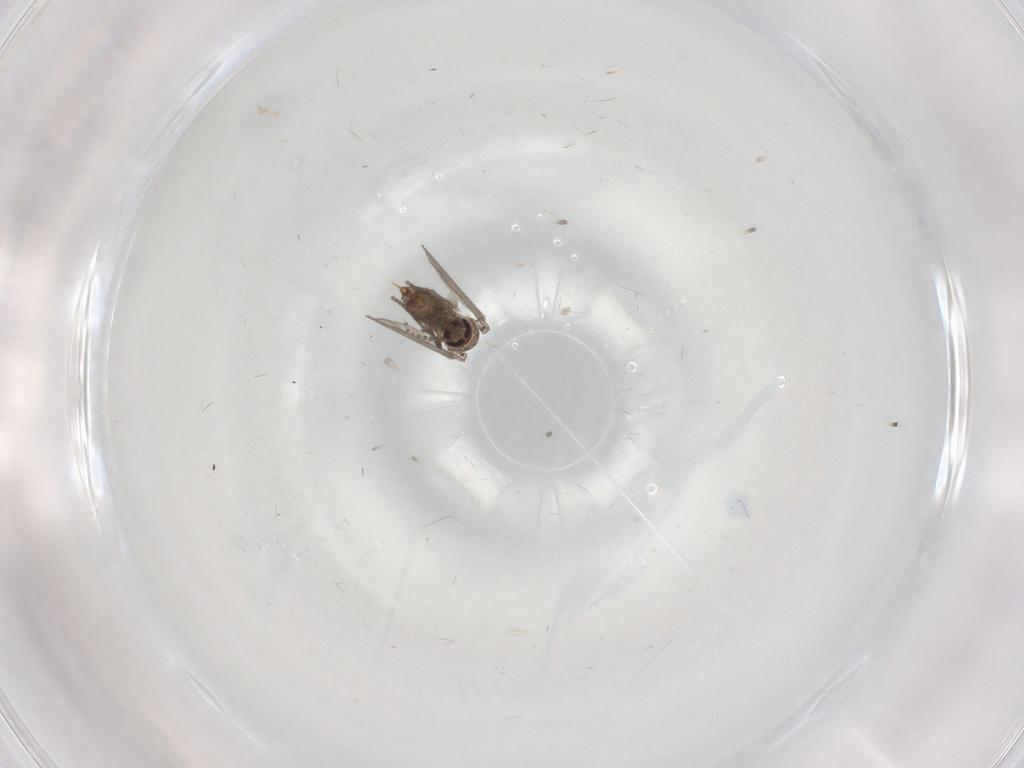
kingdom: Animalia
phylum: Arthropoda
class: Insecta
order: Diptera
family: Psychodidae
